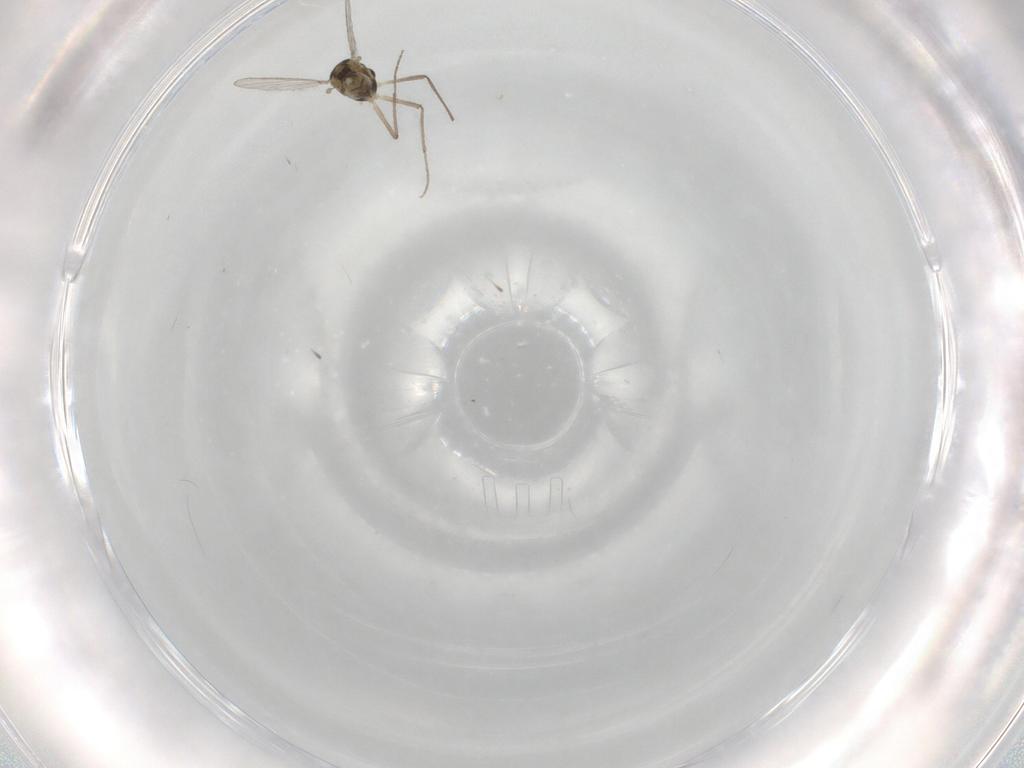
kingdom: Animalia
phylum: Arthropoda
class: Insecta
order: Diptera
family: Chironomidae
